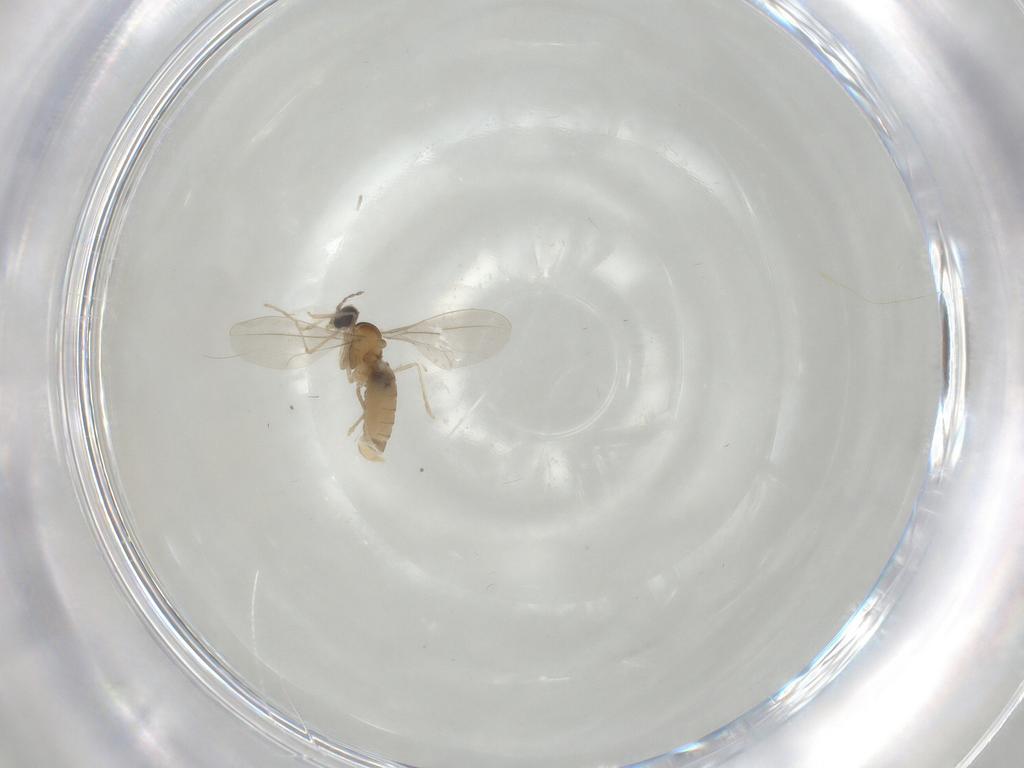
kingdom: Animalia
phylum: Arthropoda
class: Insecta
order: Diptera
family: Cecidomyiidae
